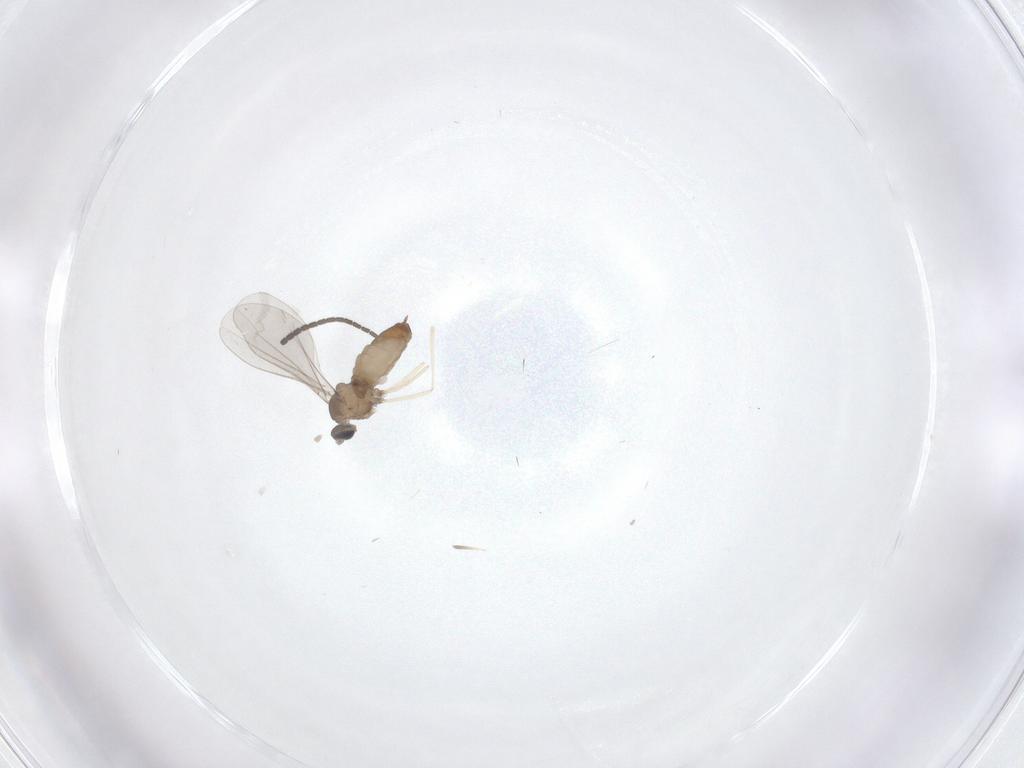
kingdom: Animalia
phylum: Arthropoda
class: Insecta
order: Diptera
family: Sciaridae
